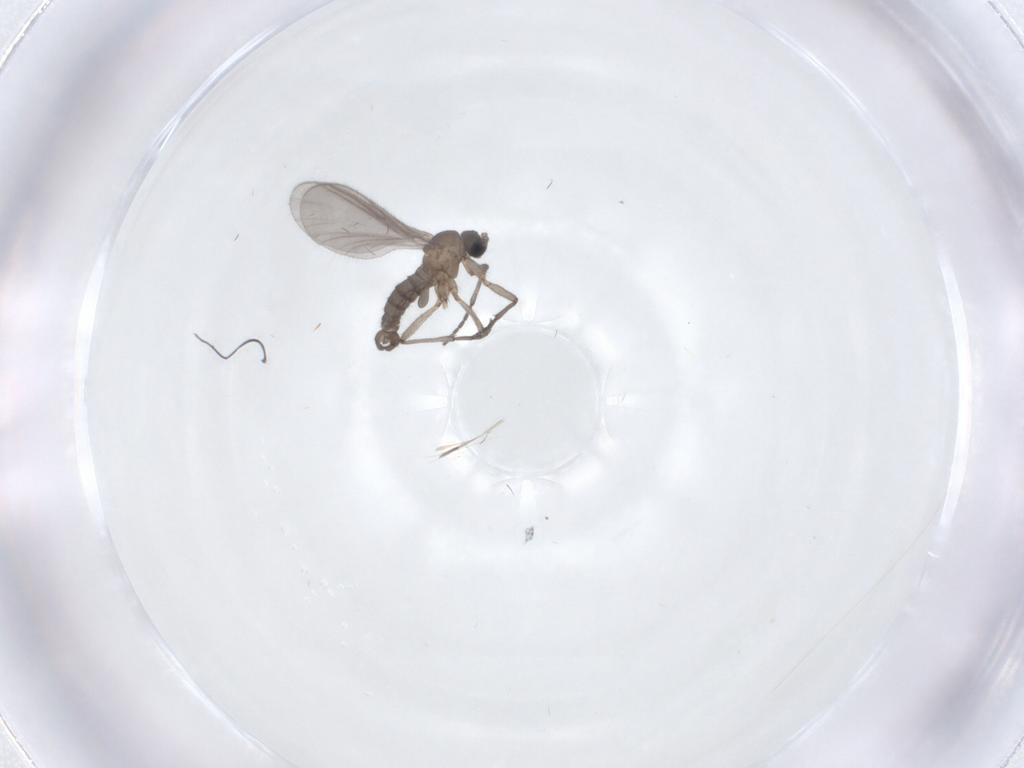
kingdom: Animalia
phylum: Arthropoda
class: Insecta
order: Diptera
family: Sciaridae
